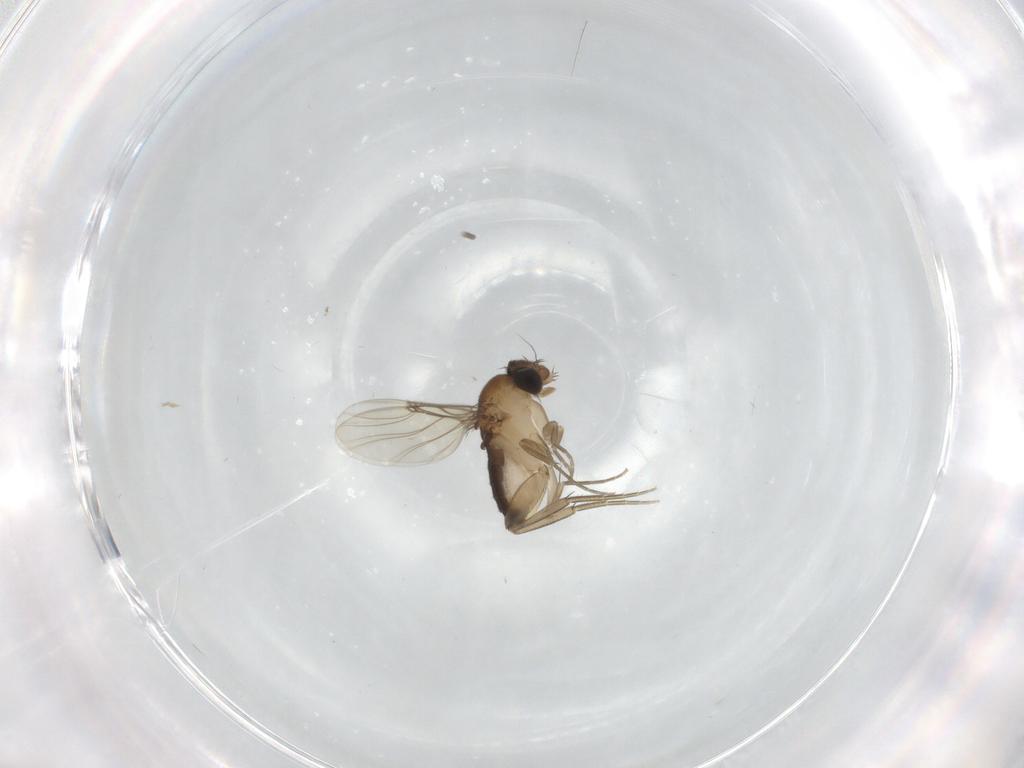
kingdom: Animalia
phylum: Arthropoda
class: Insecta
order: Diptera
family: Phoridae
